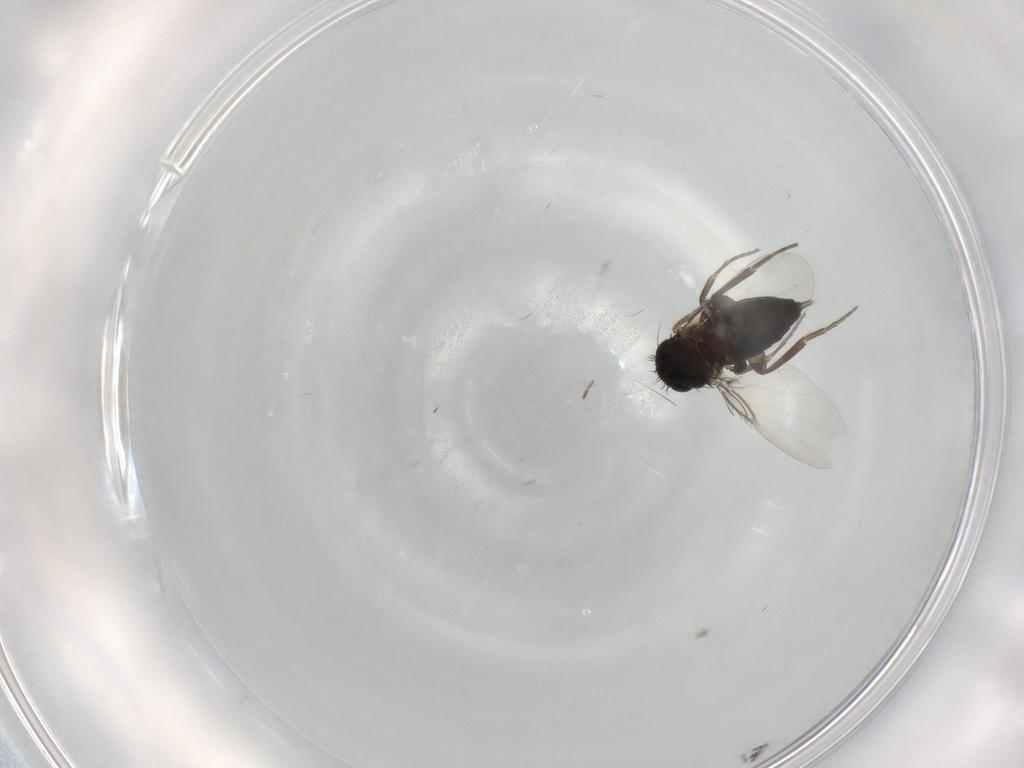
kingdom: Animalia
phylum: Arthropoda
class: Insecta
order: Diptera
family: Phoridae
